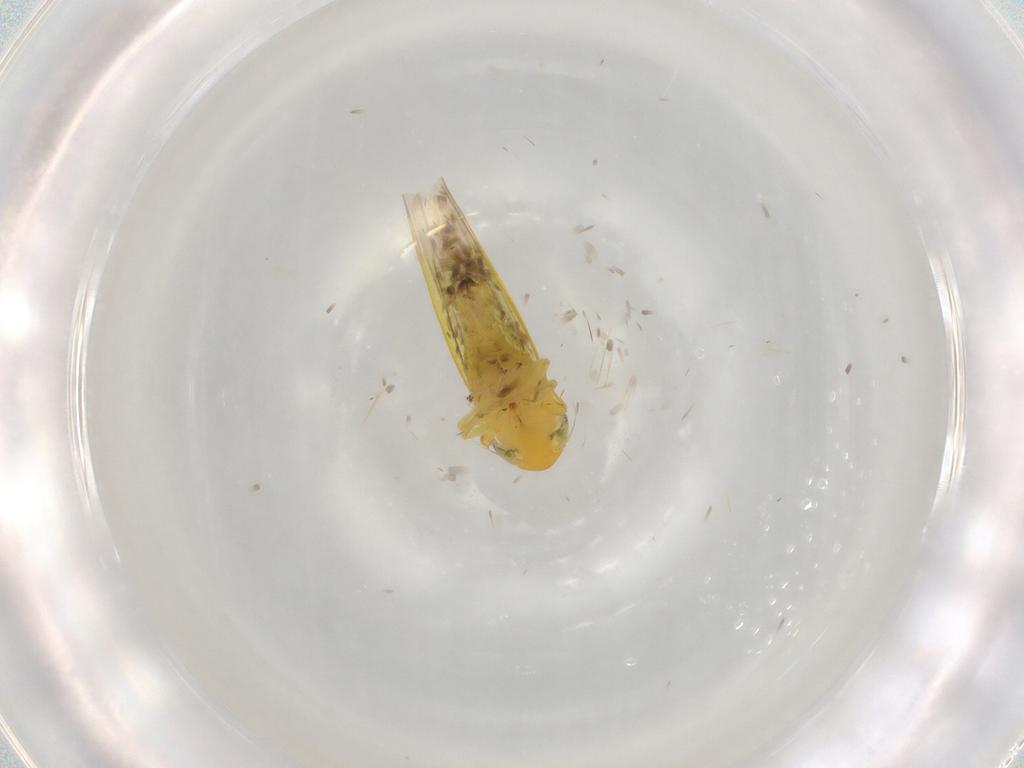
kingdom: Animalia
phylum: Arthropoda
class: Insecta
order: Hemiptera
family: Cicadellidae
